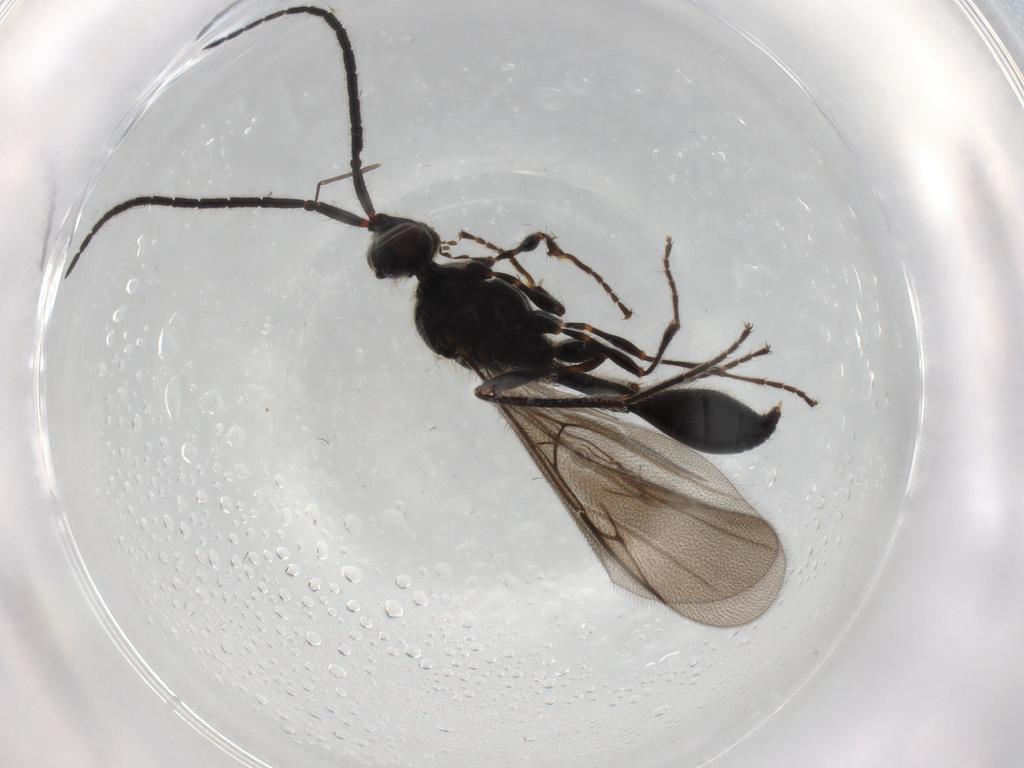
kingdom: Animalia
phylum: Arthropoda
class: Insecta
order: Hymenoptera
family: Diapriidae
